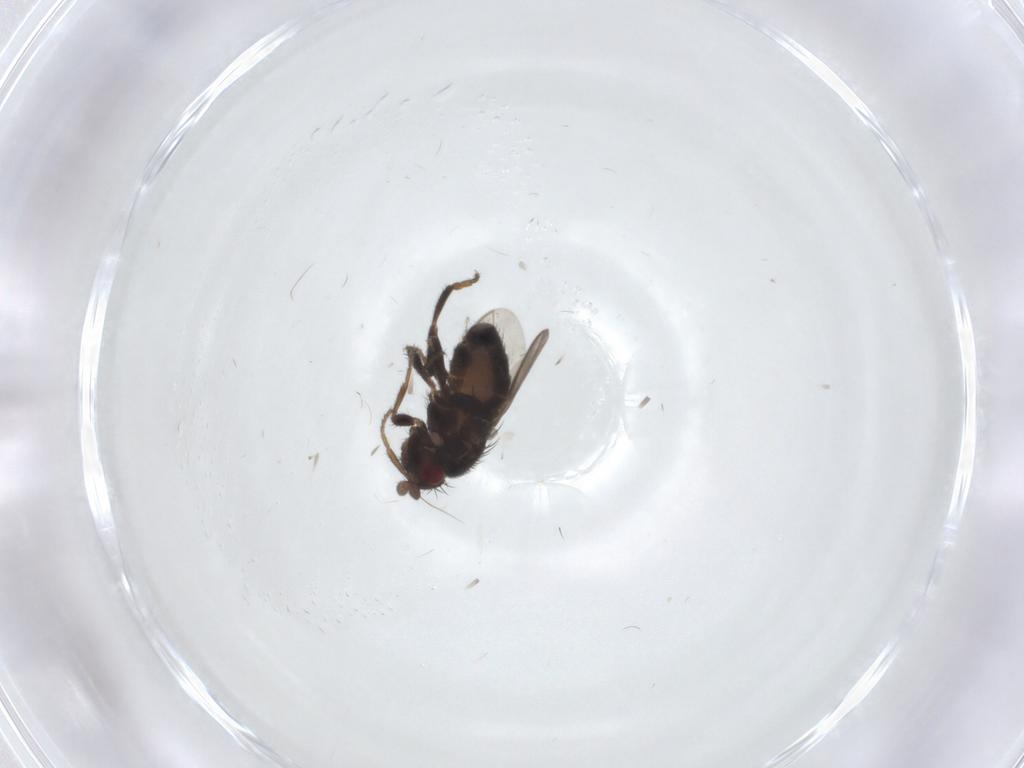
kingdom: Animalia
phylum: Arthropoda
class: Insecta
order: Diptera
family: Sphaeroceridae
